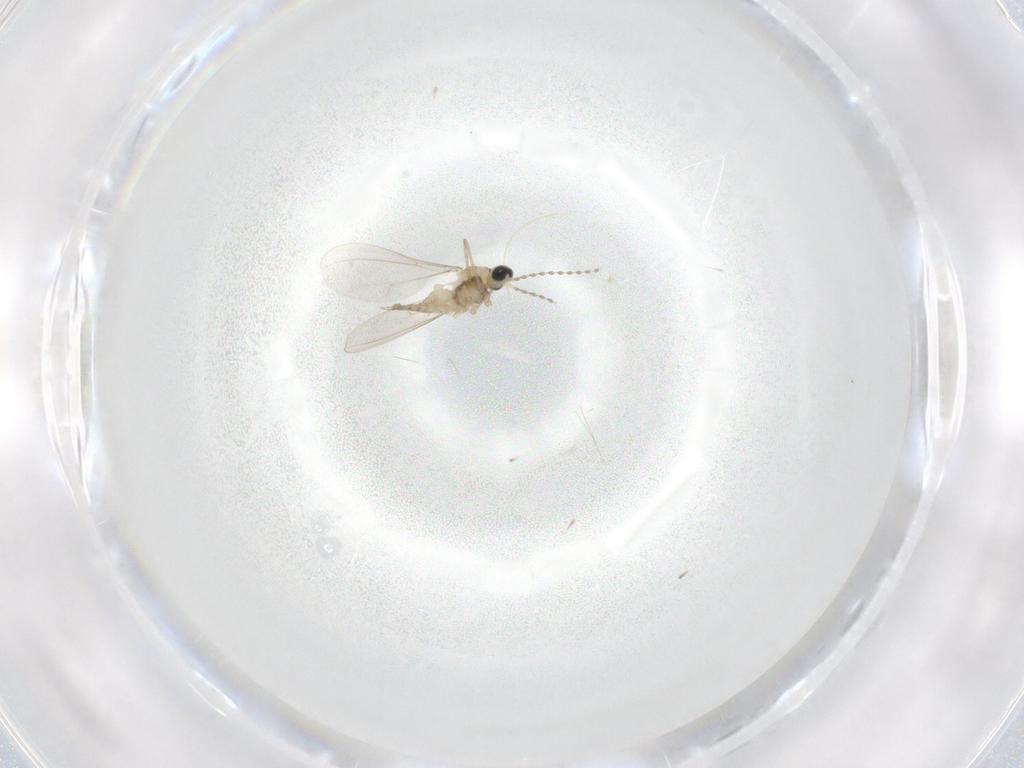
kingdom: Animalia
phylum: Arthropoda
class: Insecta
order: Diptera
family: Cecidomyiidae
